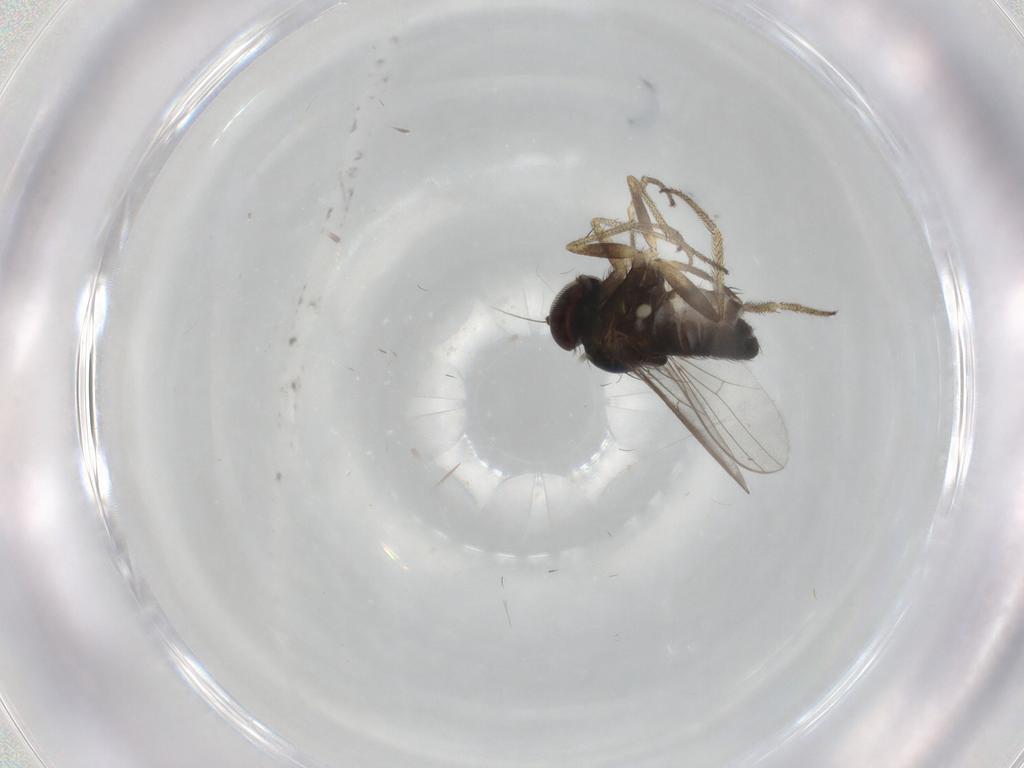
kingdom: Animalia
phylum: Arthropoda
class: Insecta
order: Diptera
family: Dolichopodidae
